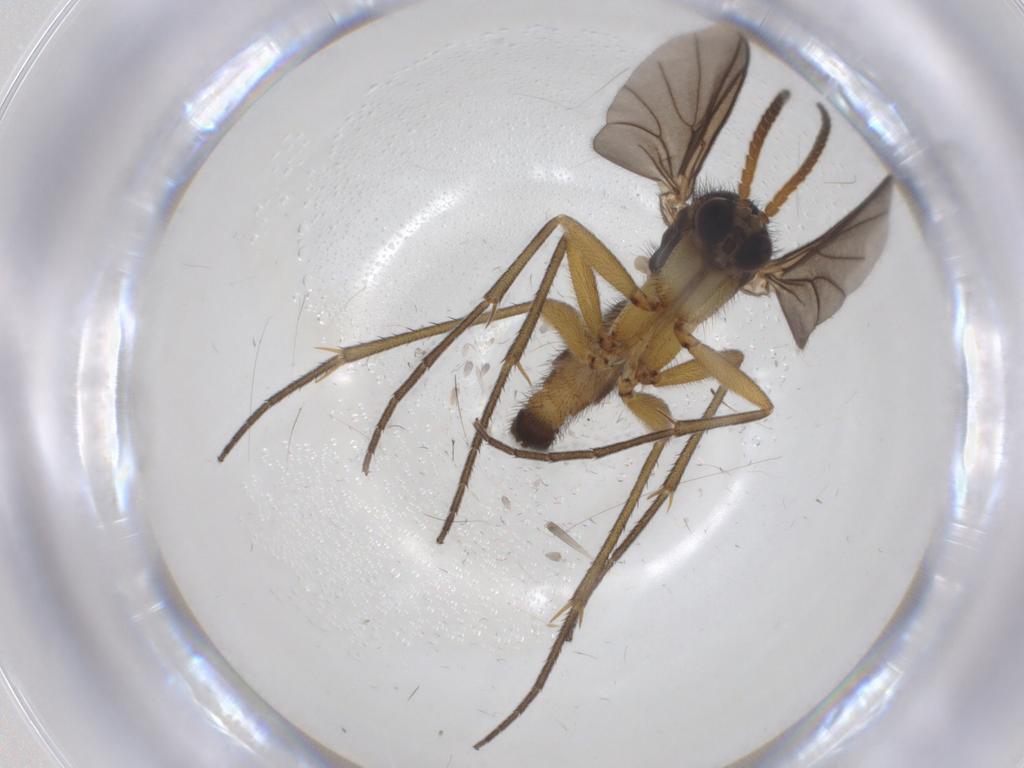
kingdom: Animalia
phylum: Arthropoda
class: Insecta
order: Diptera
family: Mycetophilidae
